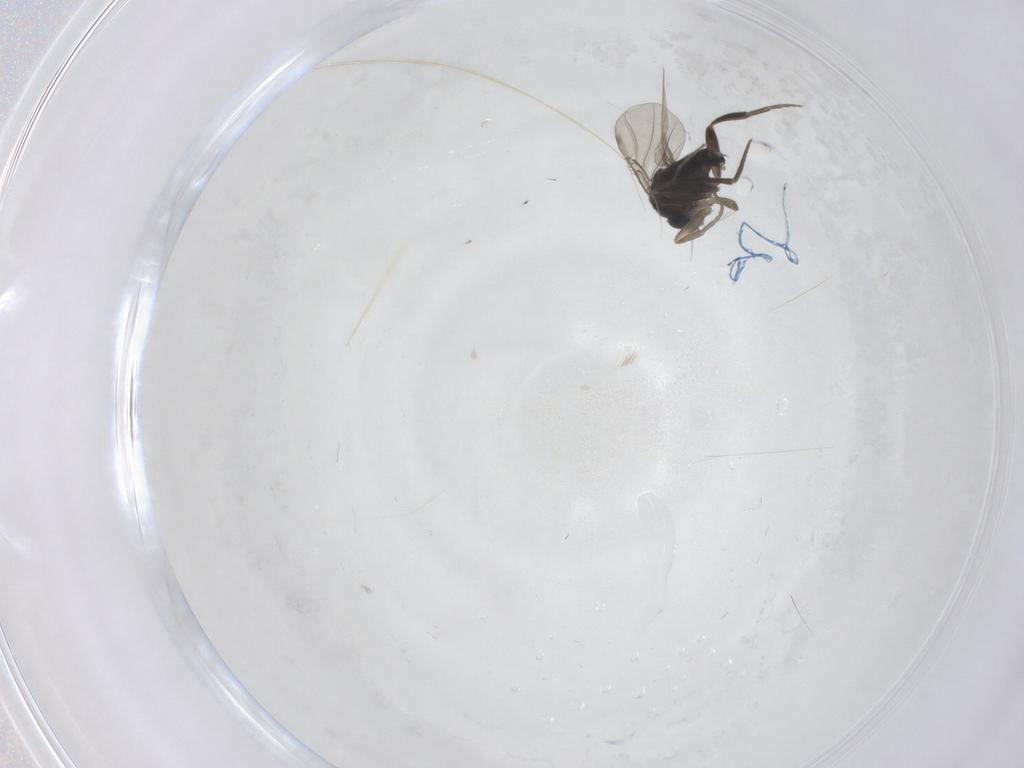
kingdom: Animalia
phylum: Arthropoda
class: Insecta
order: Diptera
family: Phoridae
